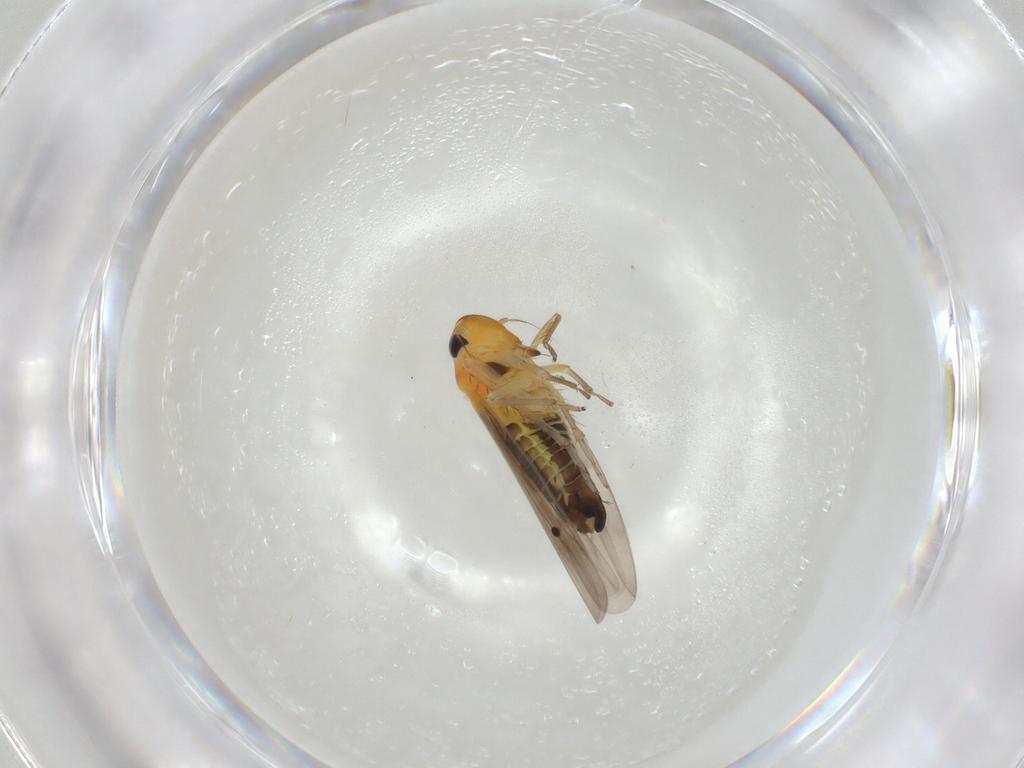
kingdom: Animalia
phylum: Arthropoda
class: Insecta
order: Hemiptera
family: Cicadellidae
